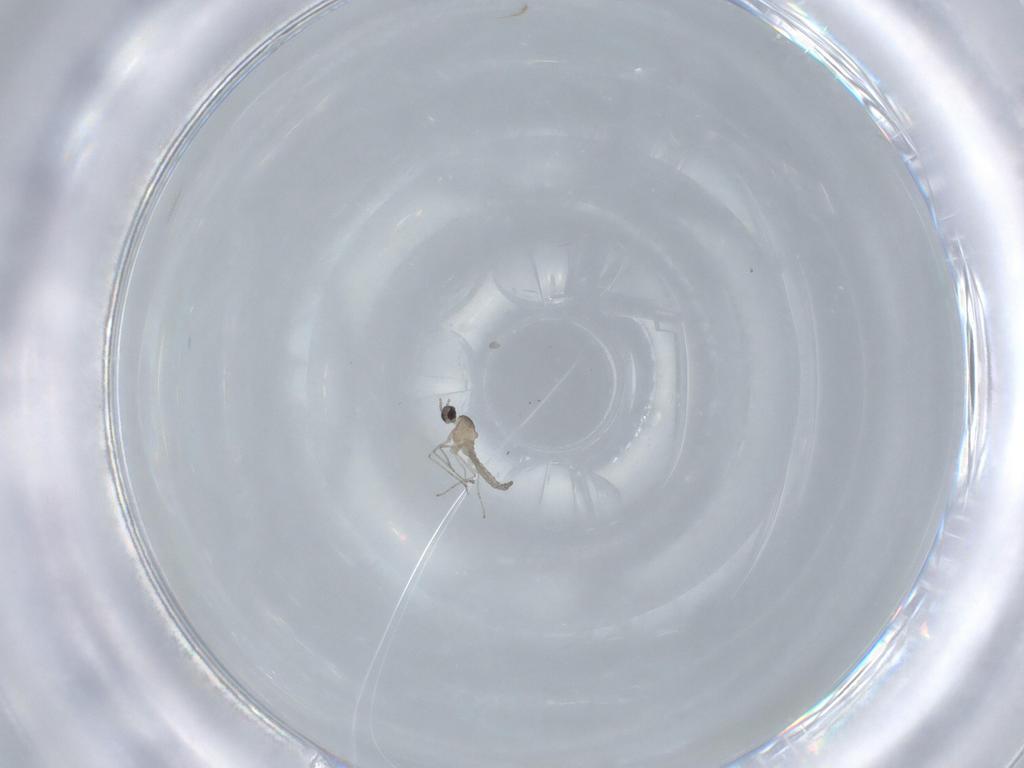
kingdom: Animalia
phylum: Arthropoda
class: Insecta
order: Diptera
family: Cecidomyiidae
